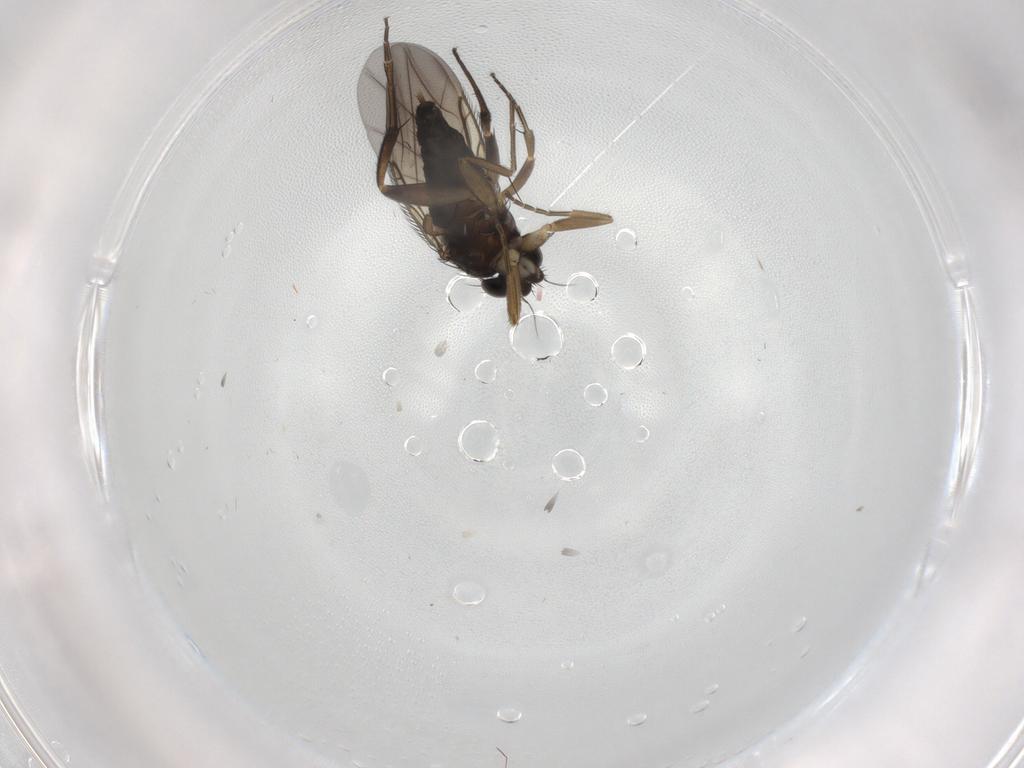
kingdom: Animalia
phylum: Arthropoda
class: Insecta
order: Diptera
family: Phoridae
